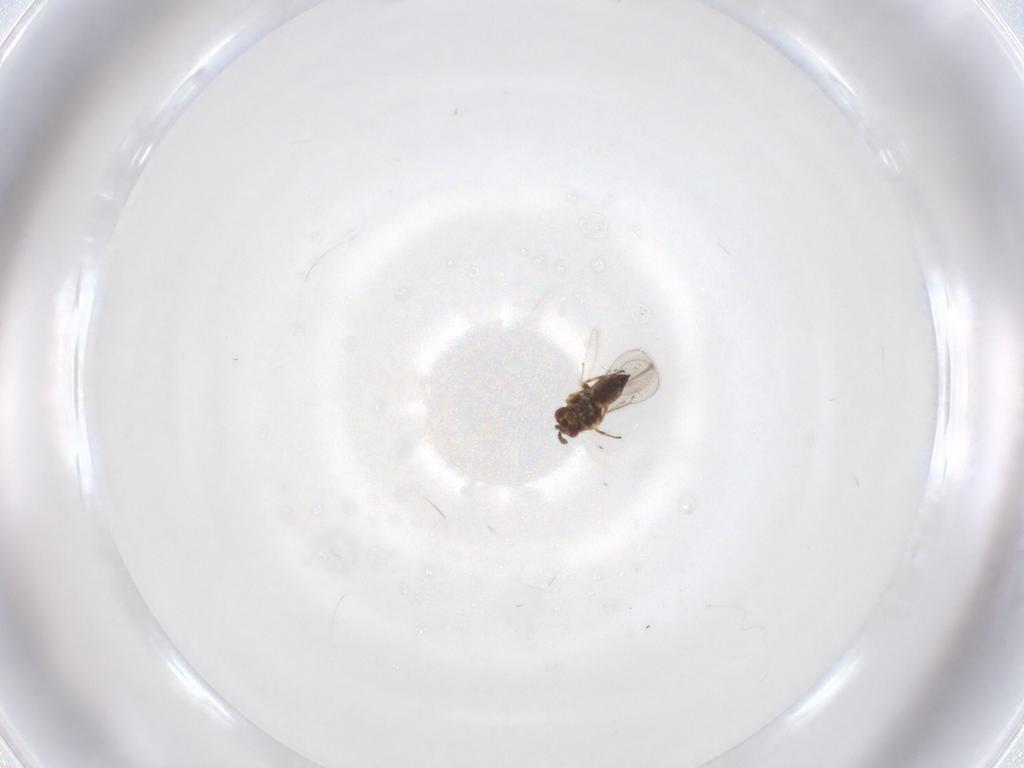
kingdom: Animalia
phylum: Arthropoda
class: Insecta
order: Hymenoptera
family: Eulophidae
